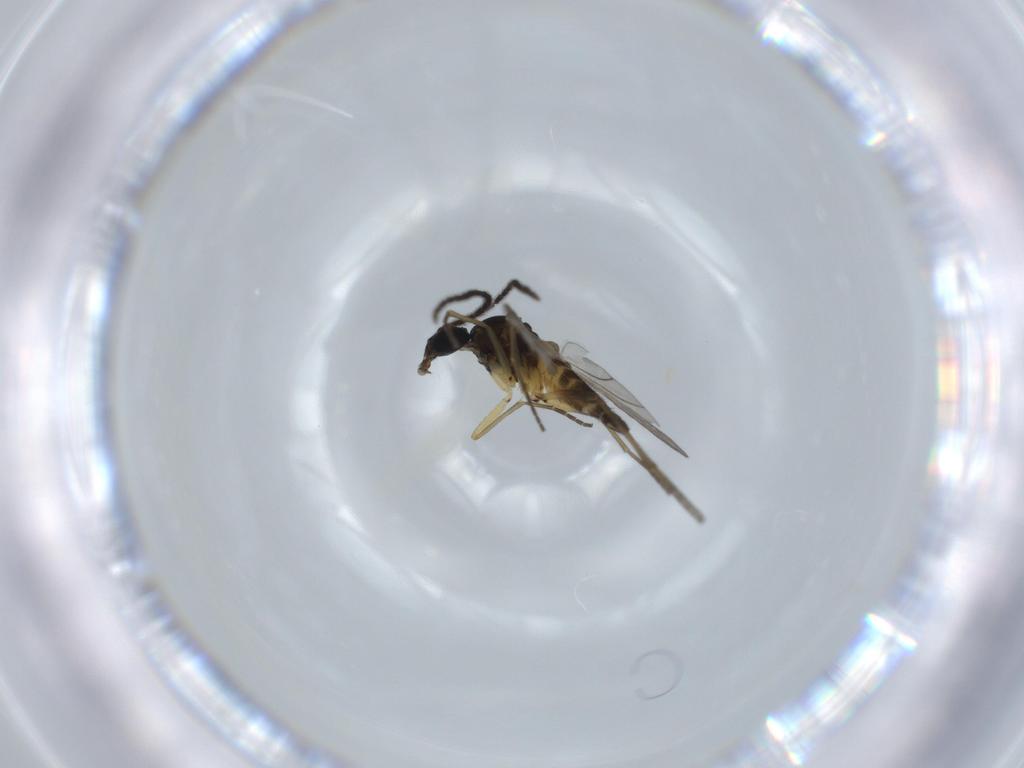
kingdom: Animalia
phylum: Arthropoda
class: Insecta
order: Diptera
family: Sciaridae
